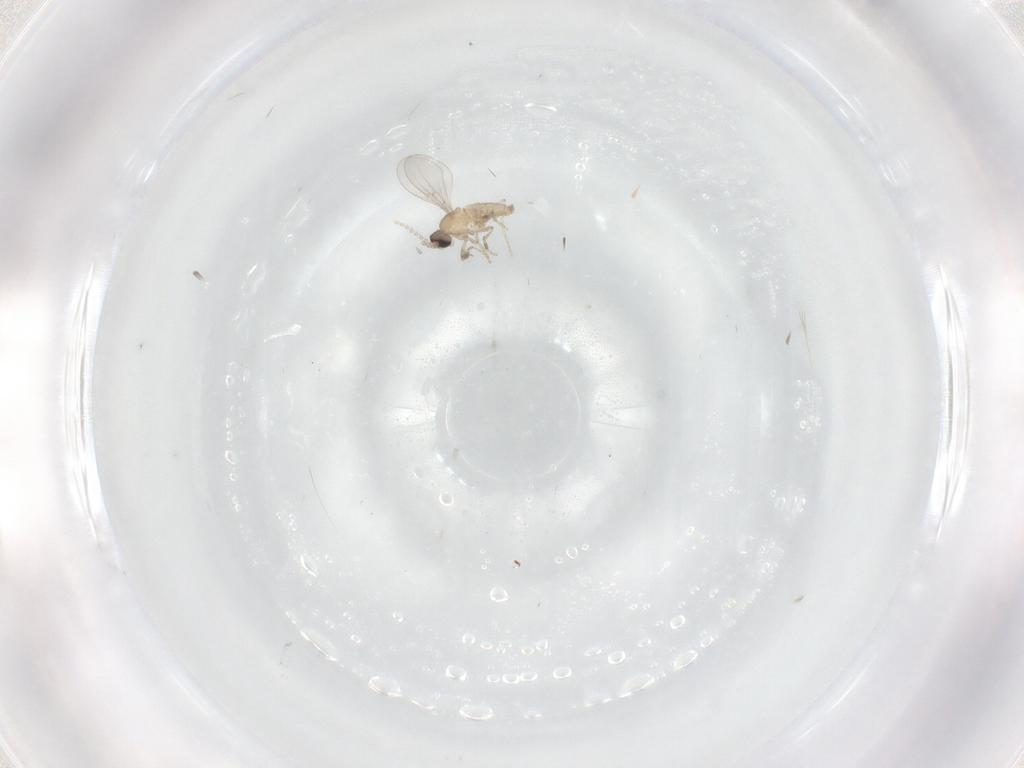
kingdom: Animalia
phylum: Arthropoda
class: Insecta
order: Diptera
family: Cecidomyiidae
